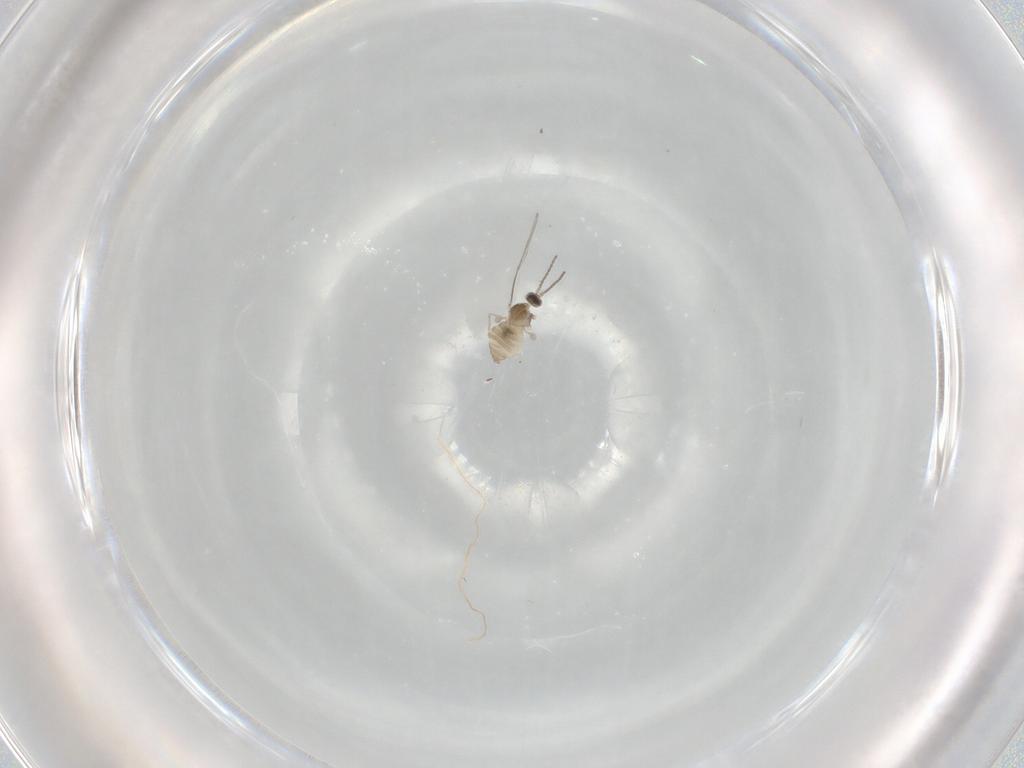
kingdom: Animalia
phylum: Arthropoda
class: Insecta
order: Diptera
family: Cecidomyiidae
